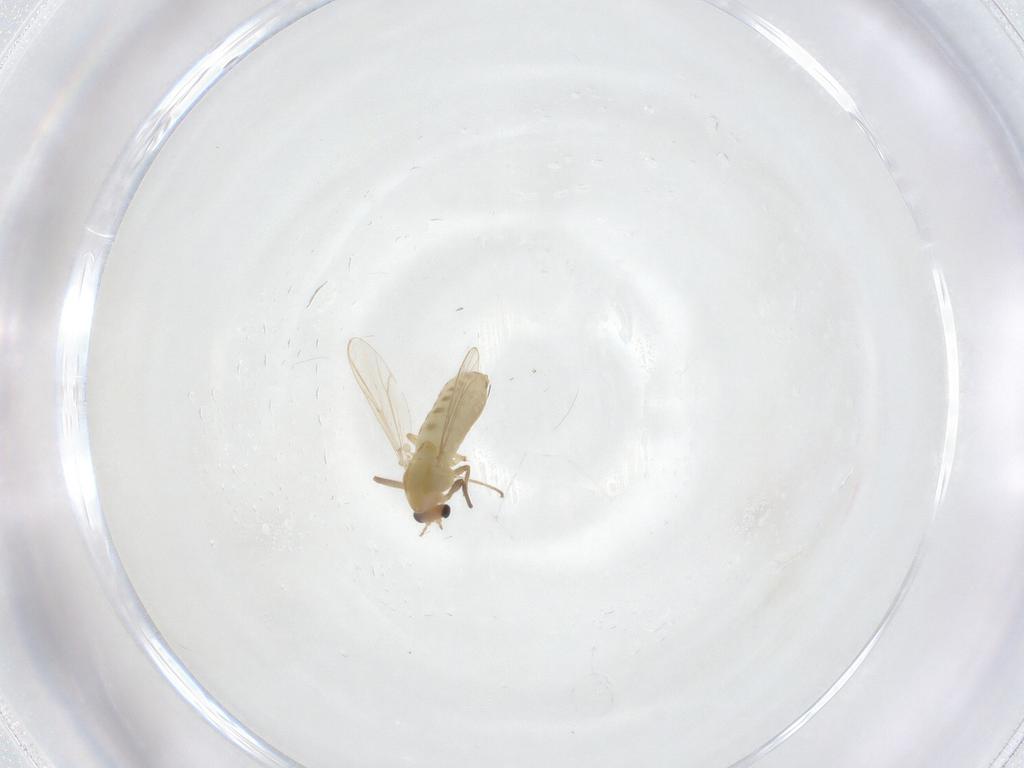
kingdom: Animalia
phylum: Arthropoda
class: Insecta
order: Diptera
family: Chironomidae
